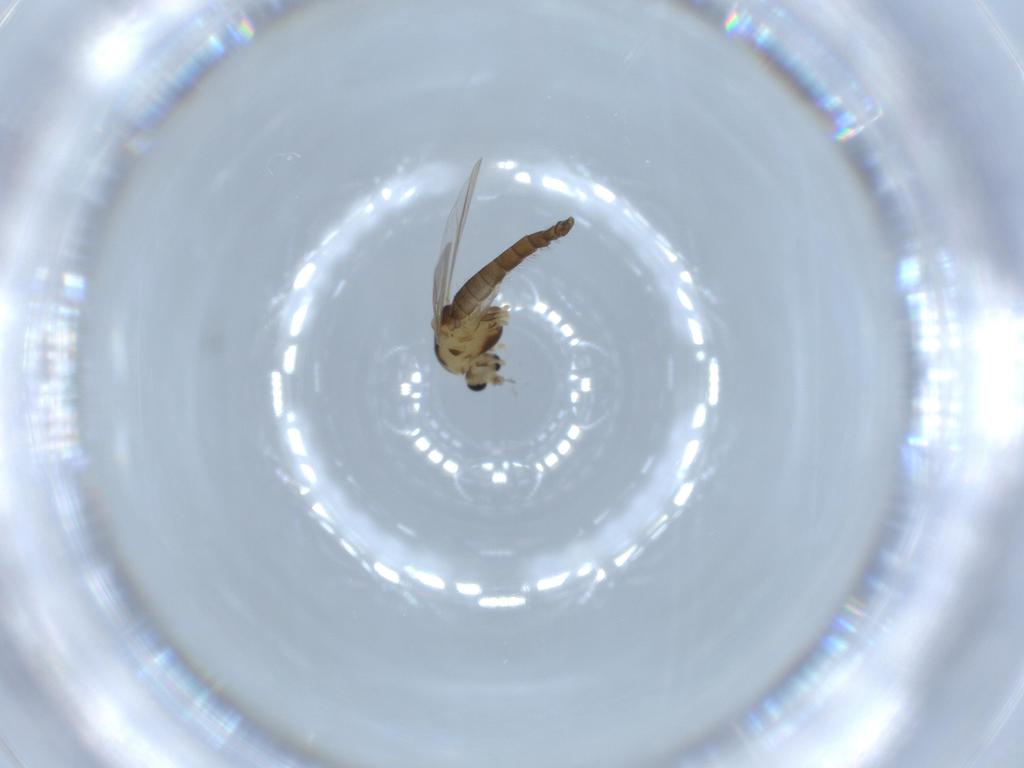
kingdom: Animalia
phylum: Arthropoda
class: Insecta
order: Diptera
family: Chironomidae
